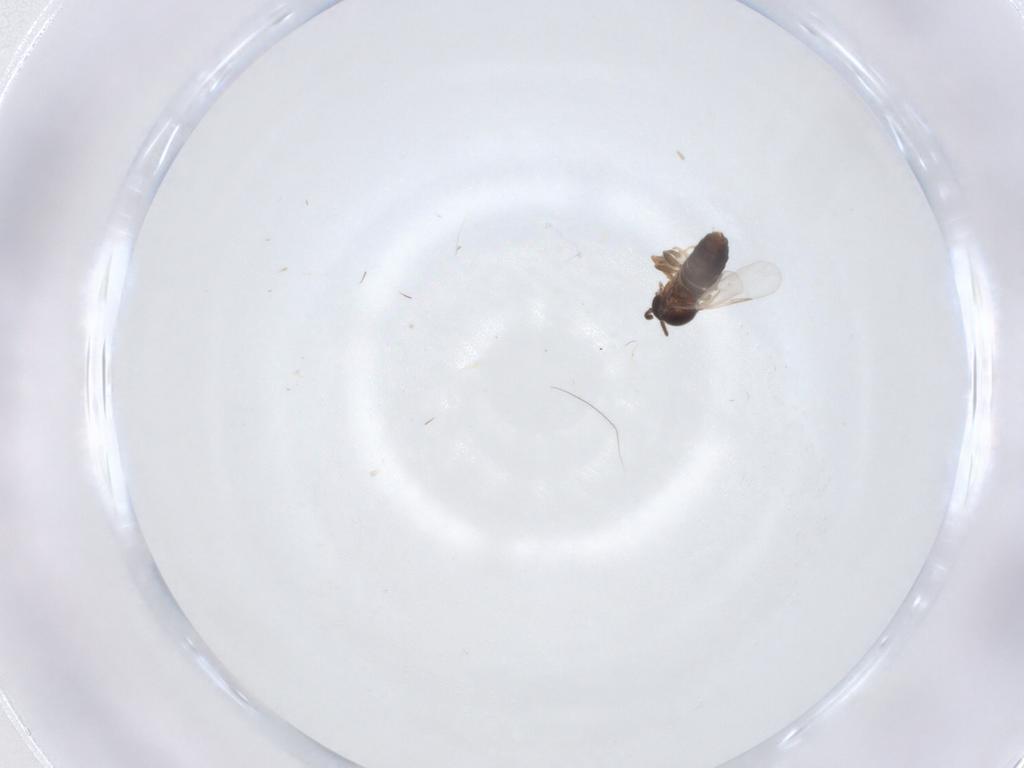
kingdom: Animalia
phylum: Arthropoda
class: Insecta
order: Diptera
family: Scatopsidae
